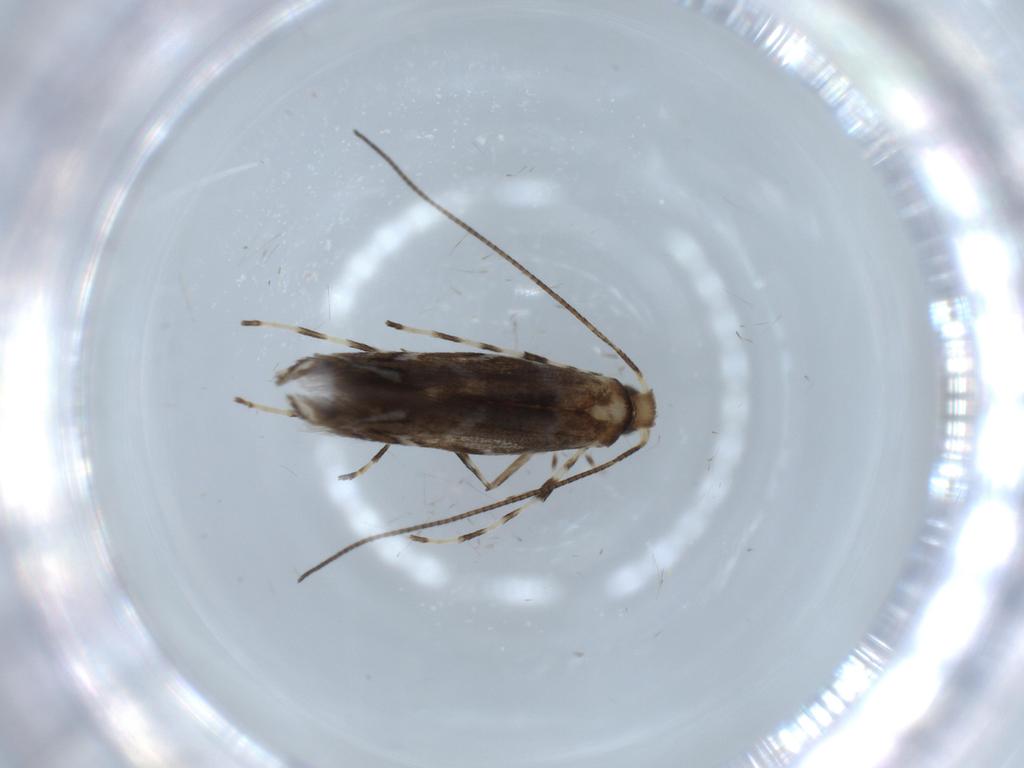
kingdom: Animalia
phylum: Arthropoda
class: Insecta
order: Lepidoptera
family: Gracillariidae
